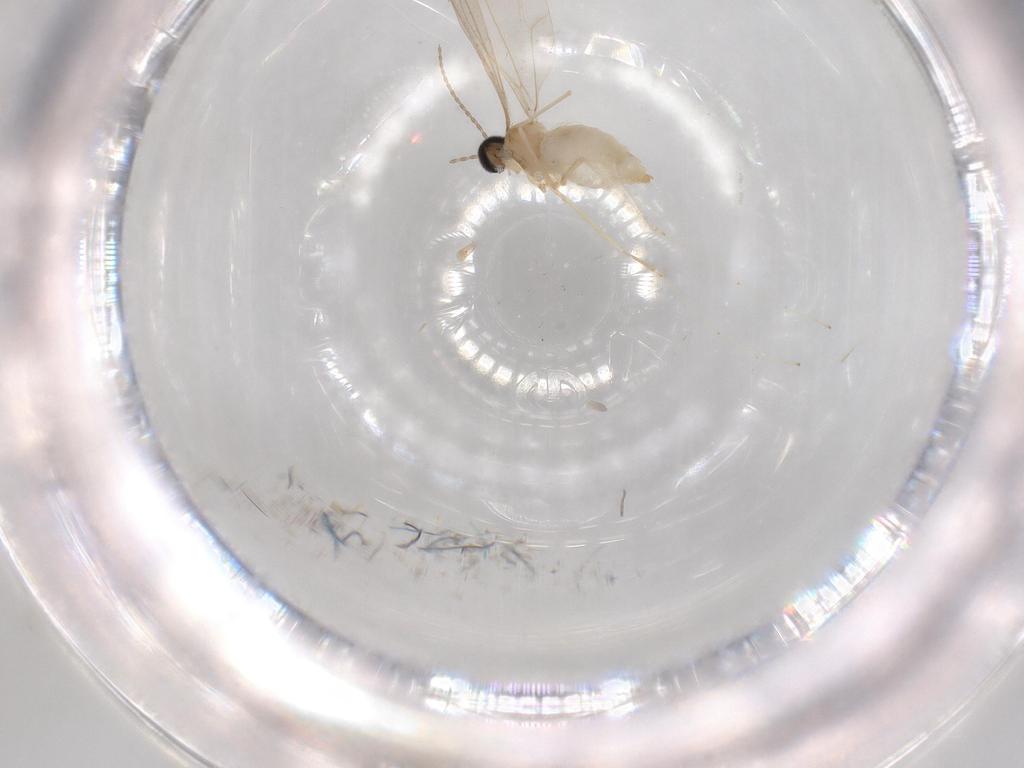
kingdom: Animalia
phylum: Arthropoda
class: Insecta
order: Diptera
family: Cecidomyiidae
